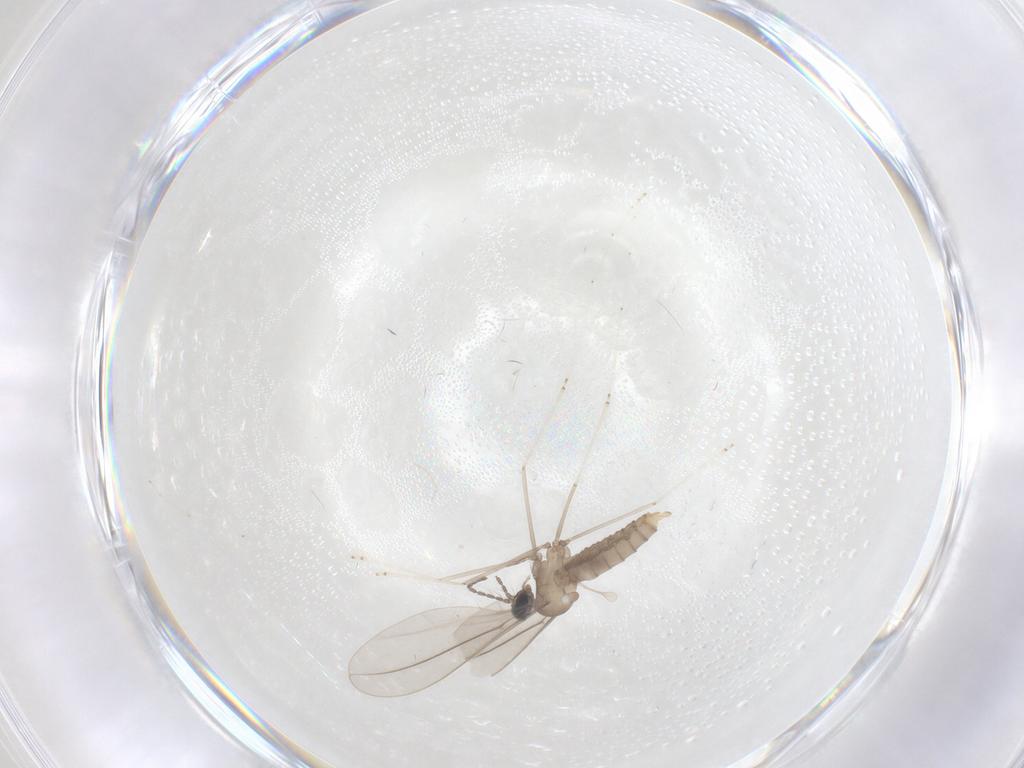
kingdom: Animalia
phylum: Arthropoda
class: Insecta
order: Diptera
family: Cecidomyiidae
